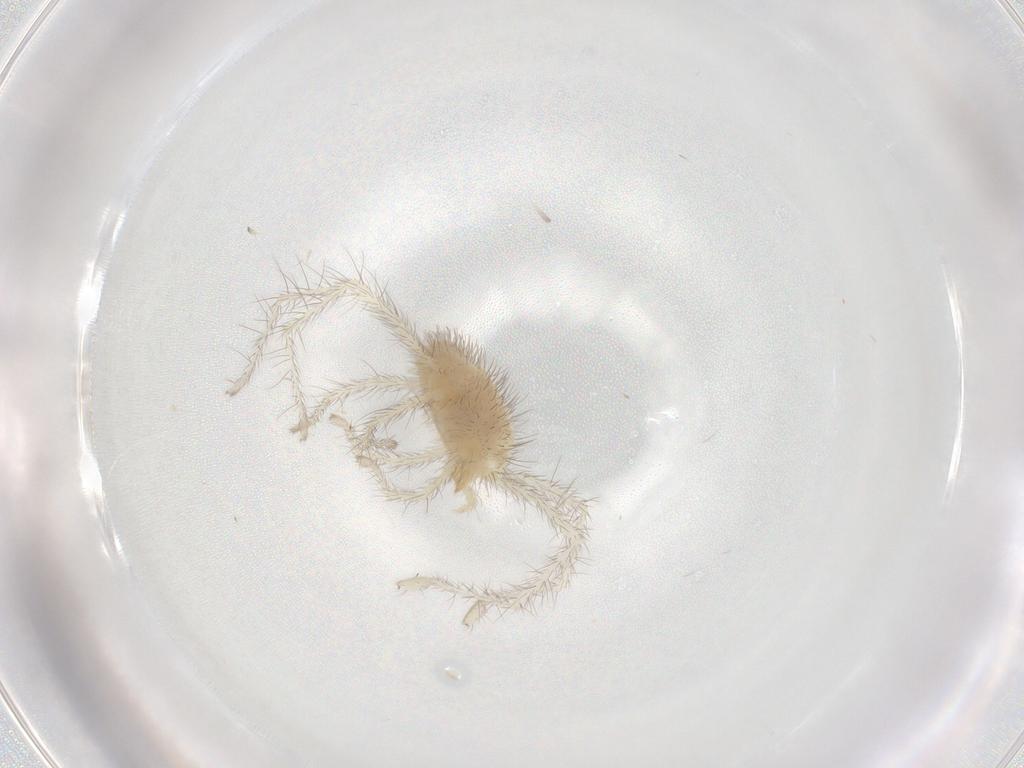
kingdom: Animalia
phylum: Arthropoda
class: Arachnida
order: Trombidiformes
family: Erythraeidae
